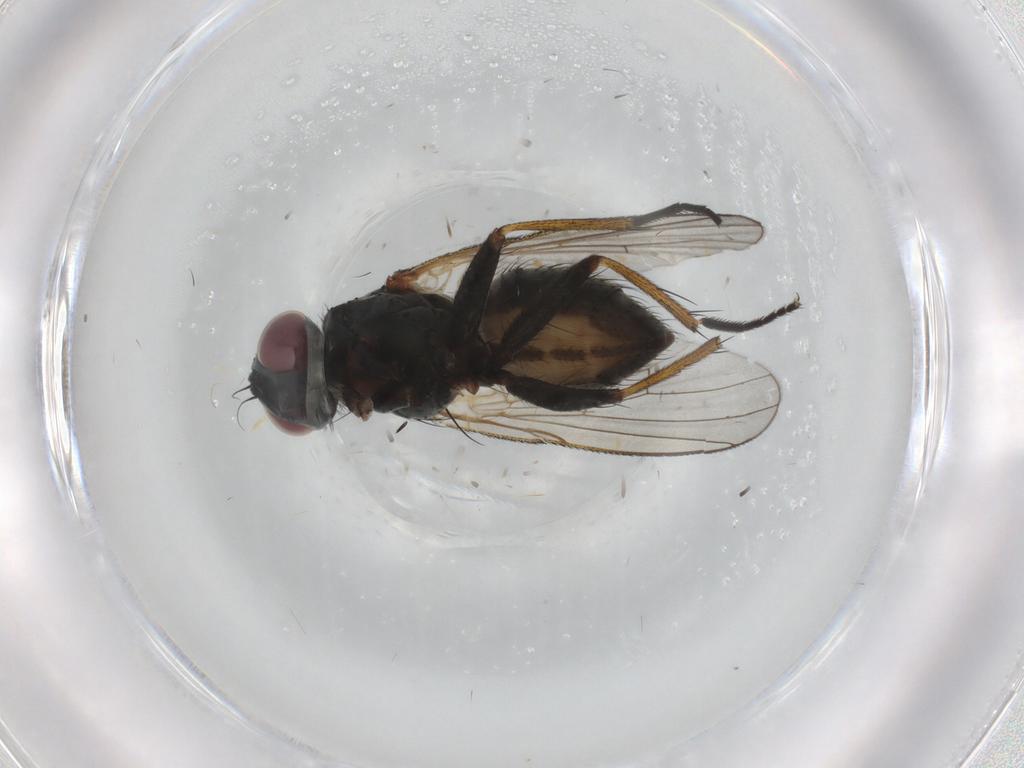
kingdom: Animalia
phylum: Arthropoda
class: Insecta
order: Diptera
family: Muscidae
